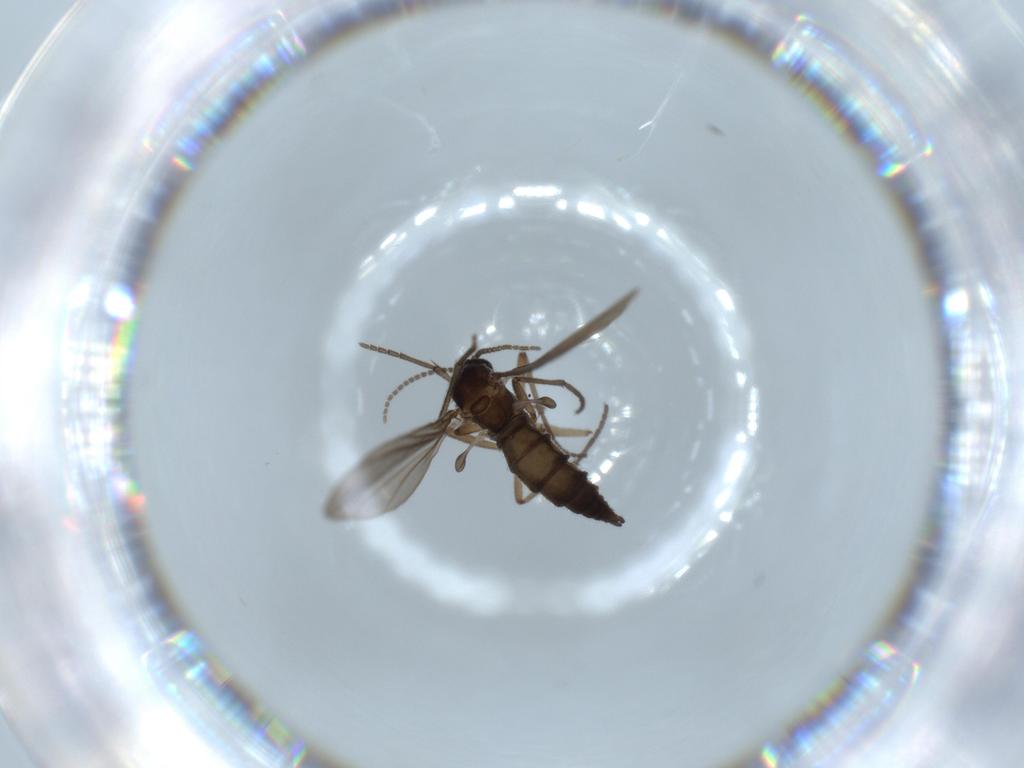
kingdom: Animalia
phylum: Arthropoda
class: Insecta
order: Diptera
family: Sciaridae
